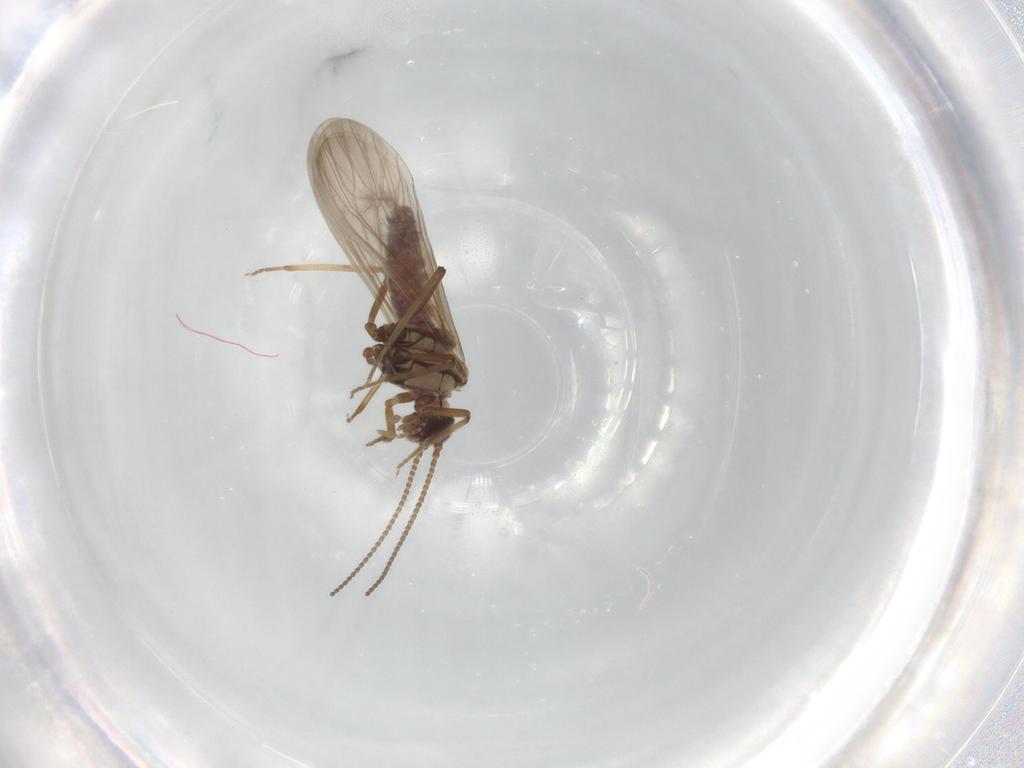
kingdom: Animalia
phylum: Arthropoda
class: Insecta
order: Neuroptera
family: Coniopterygidae
